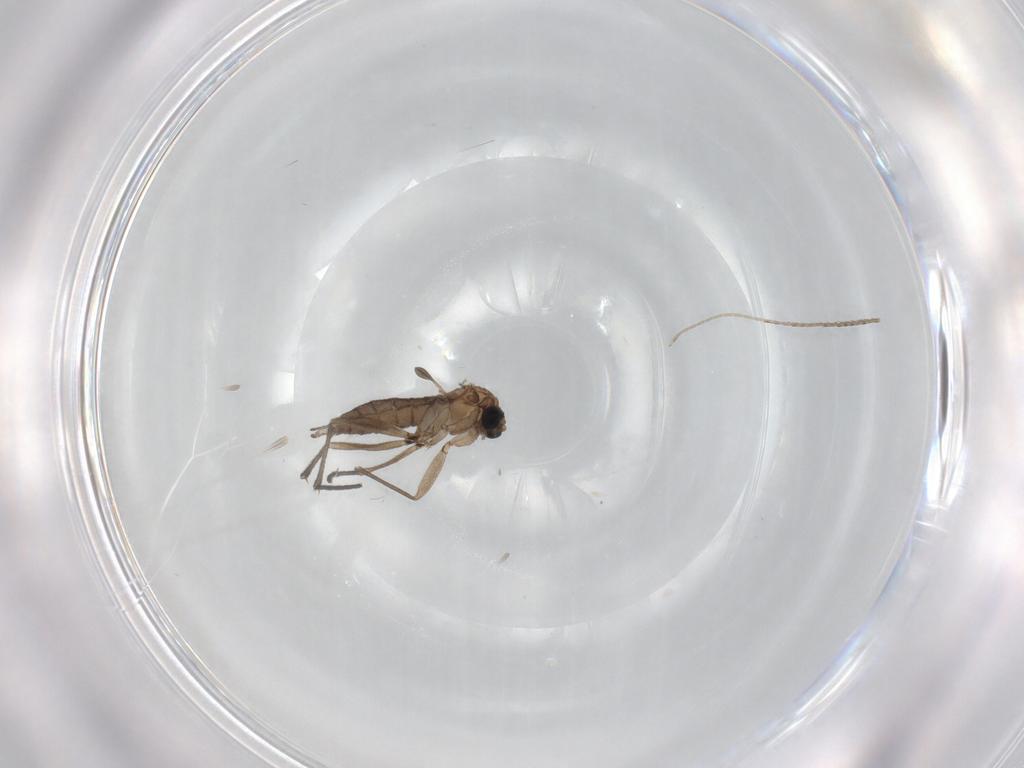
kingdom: Animalia
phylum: Arthropoda
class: Insecta
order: Diptera
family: Sciaridae
